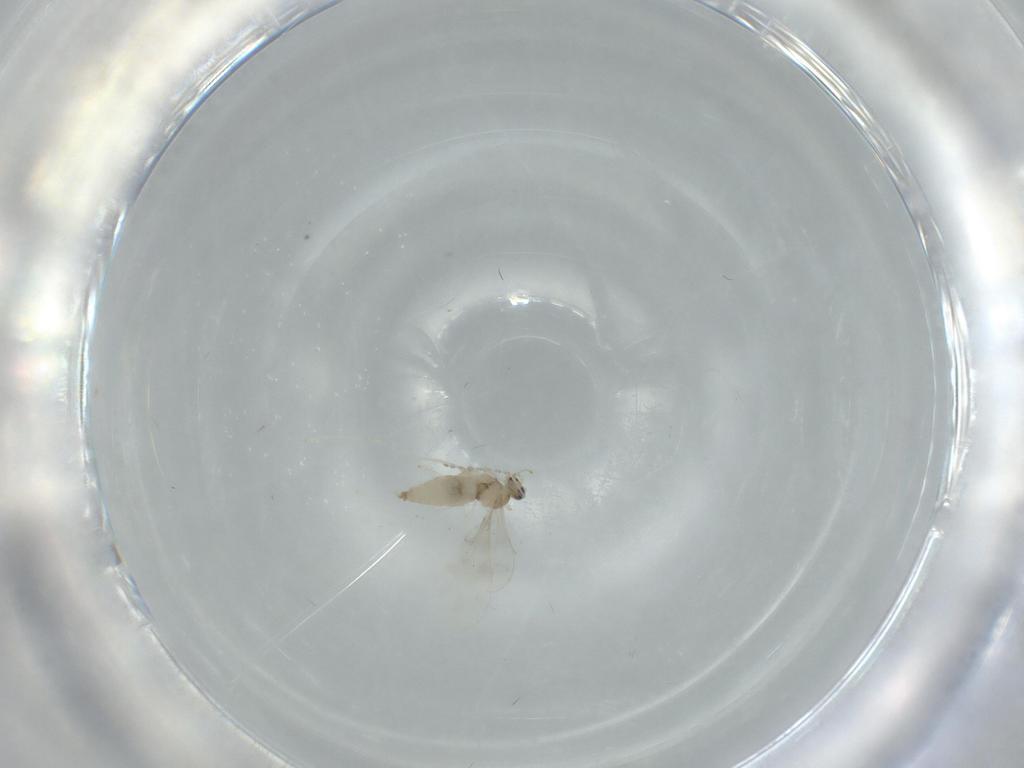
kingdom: Animalia
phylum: Arthropoda
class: Insecta
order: Diptera
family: Cecidomyiidae
